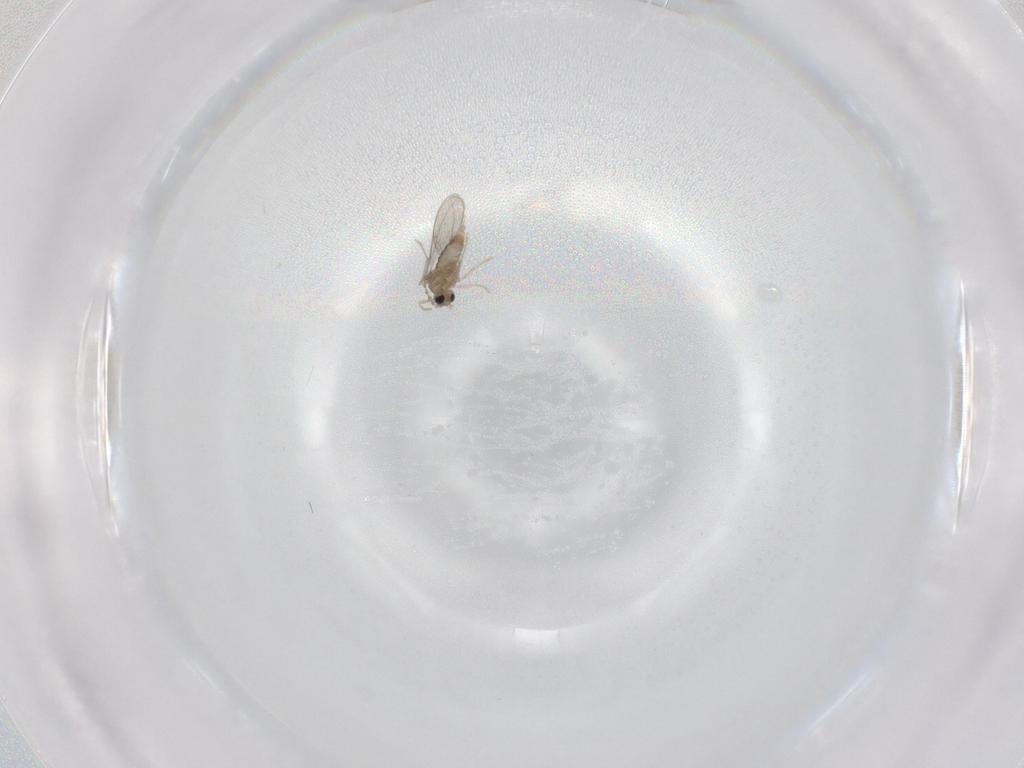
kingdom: Animalia
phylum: Arthropoda
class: Insecta
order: Diptera
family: Cecidomyiidae
